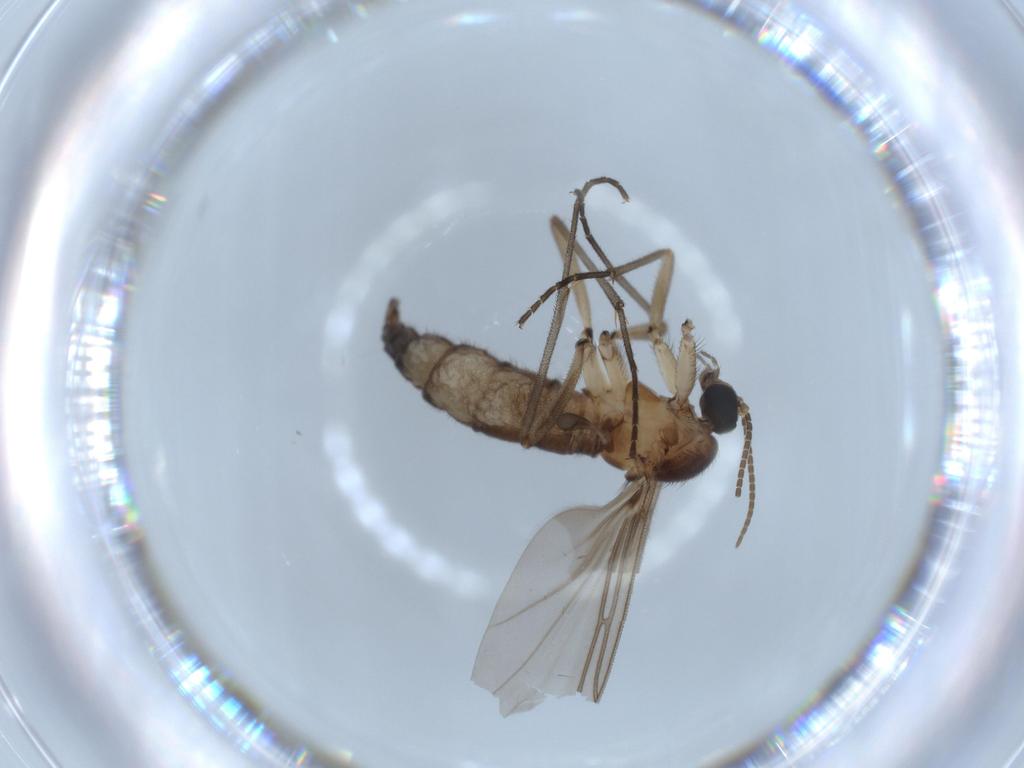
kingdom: Animalia
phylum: Arthropoda
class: Insecta
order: Diptera
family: Sciaridae
